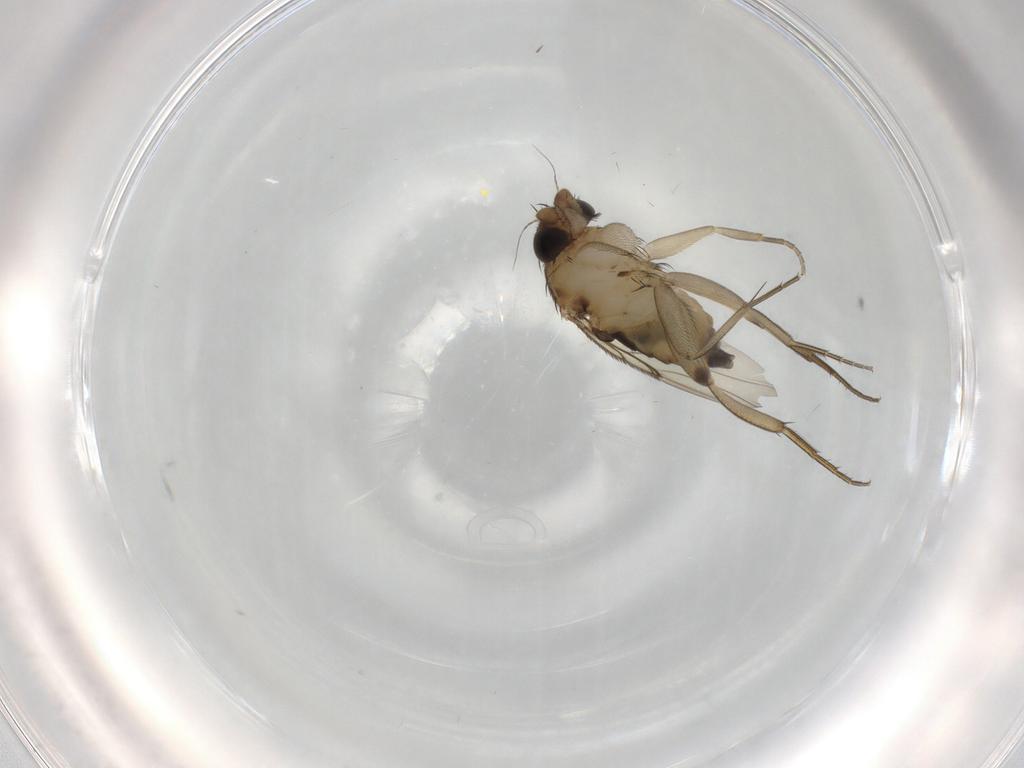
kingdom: Animalia
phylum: Arthropoda
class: Insecta
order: Diptera
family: Phoridae
